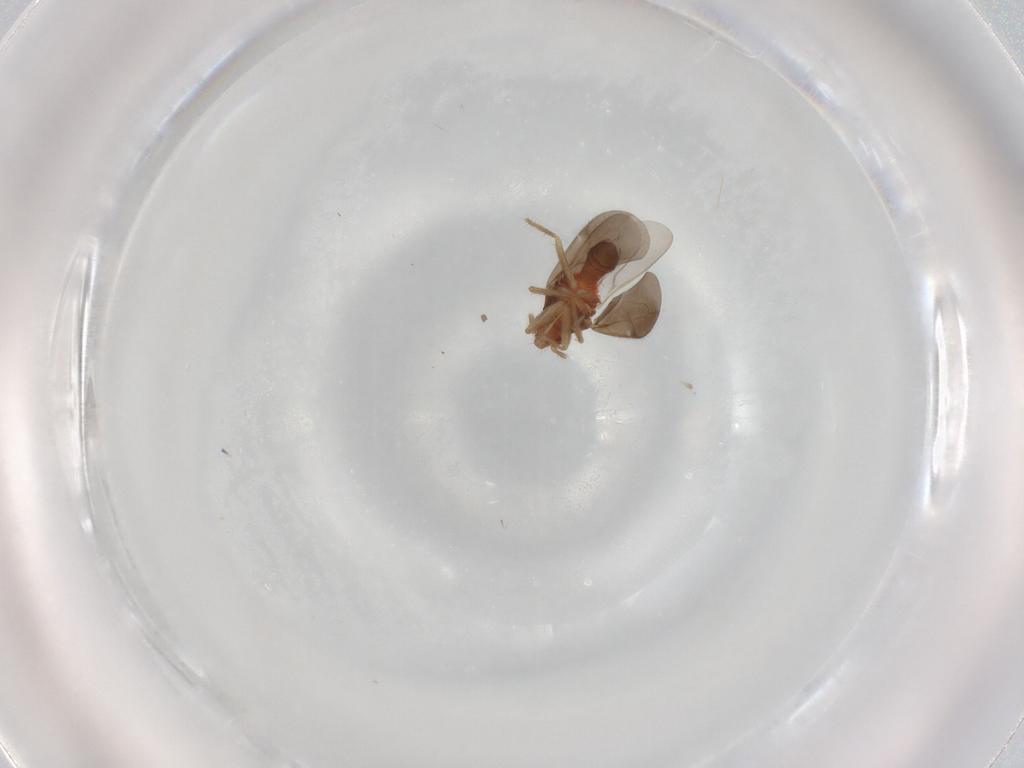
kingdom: Animalia
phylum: Arthropoda
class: Insecta
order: Hemiptera
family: Ceratocombidae
